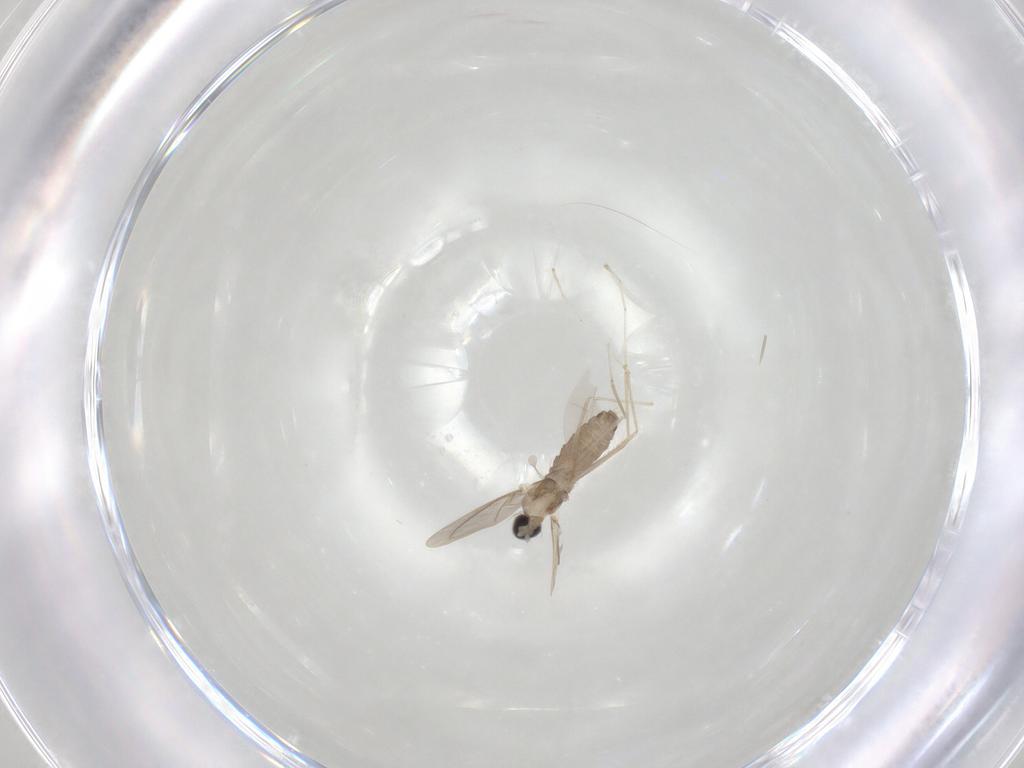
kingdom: Animalia
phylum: Arthropoda
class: Insecta
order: Diptera
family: Cecidomyiidae
